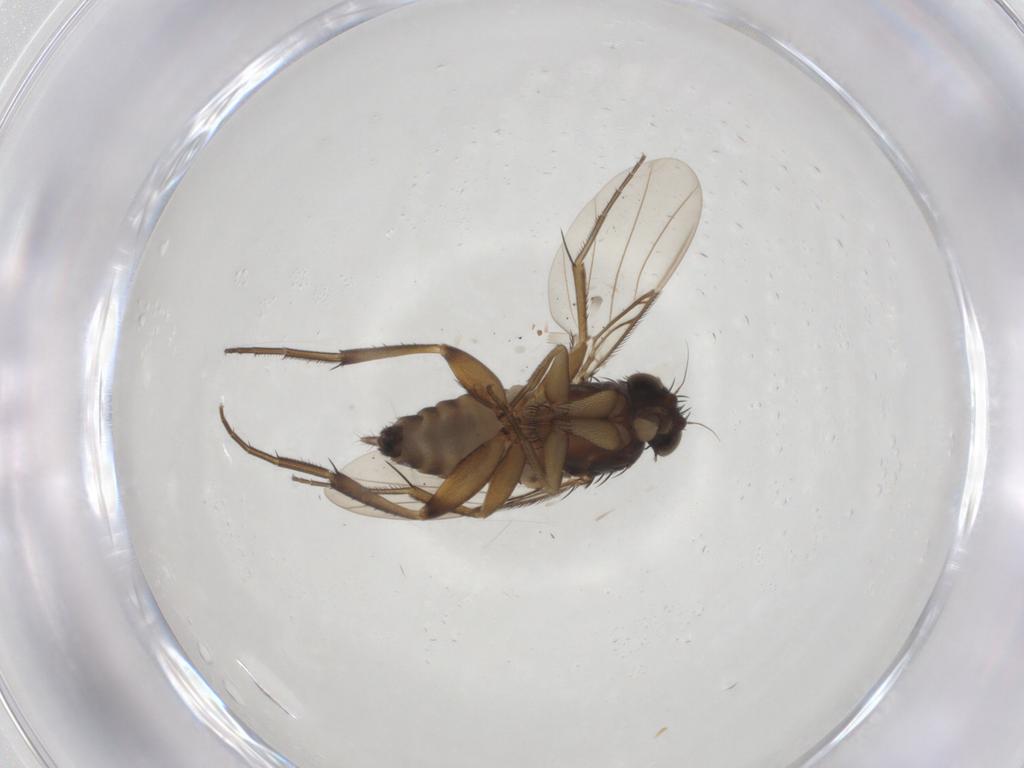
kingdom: Animalia
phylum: Arthropoda
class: Insecta
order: Diptera
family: Phoridae
